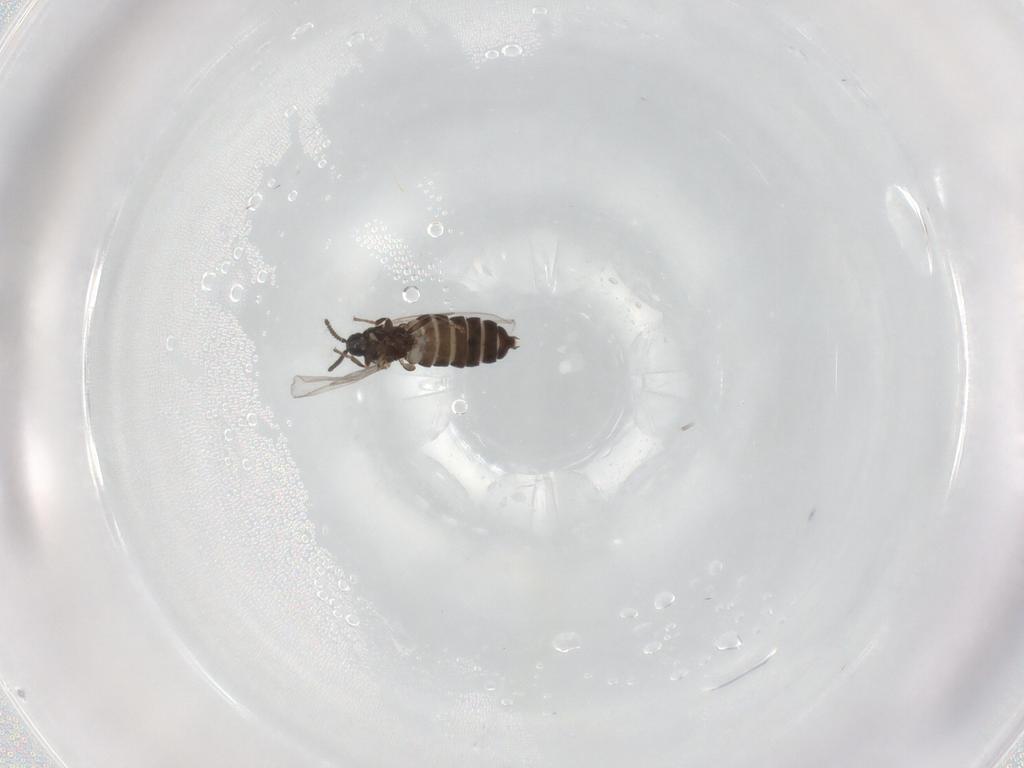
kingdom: Animalia
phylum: Arthropoda
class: Insecta
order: Diptera
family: Scatopsidae
